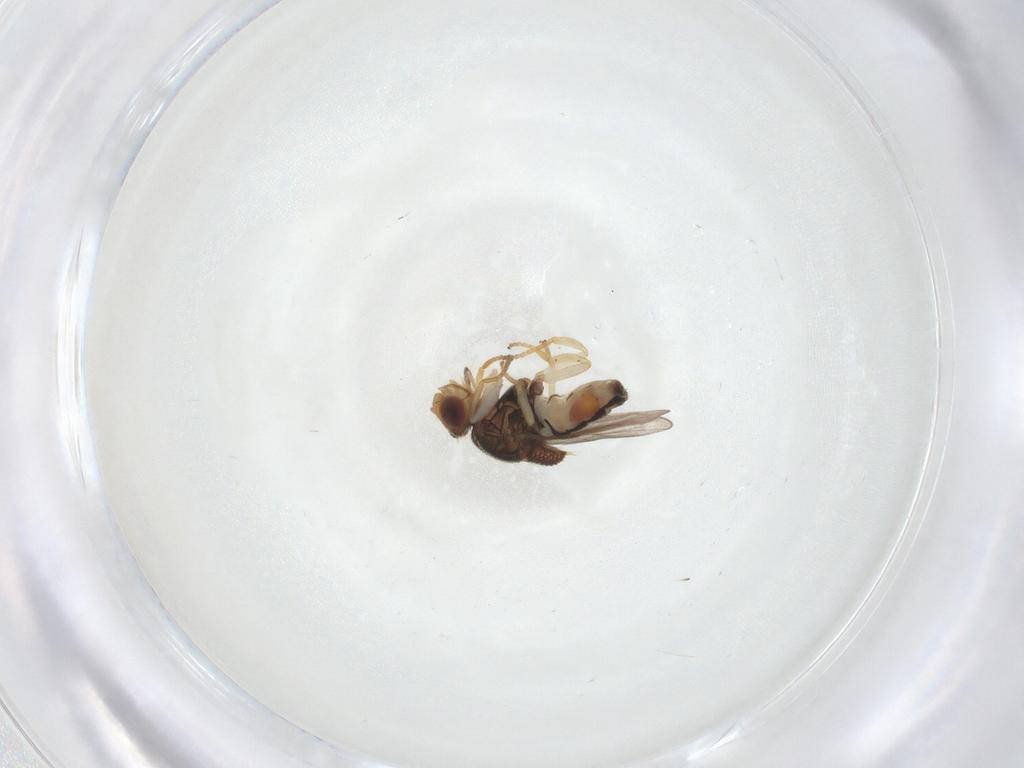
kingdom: Animalia
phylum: Arthropoda
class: Insecta
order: Diptera
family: Chloropidae
